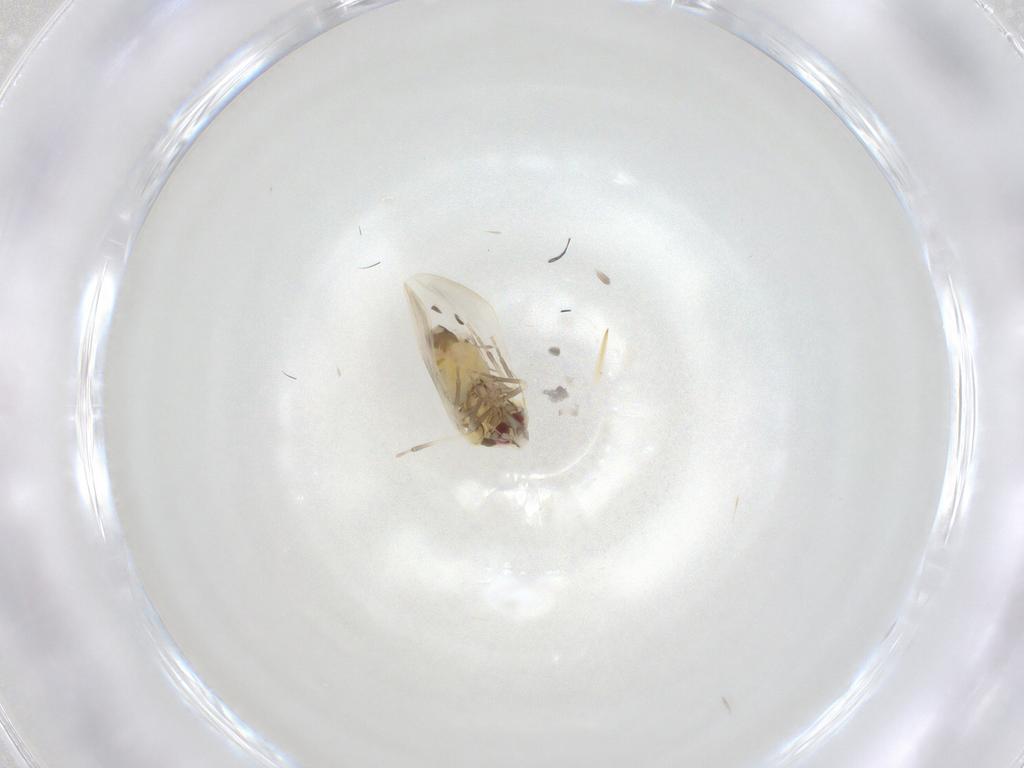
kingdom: Animalia
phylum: Arthropoda
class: Insecta
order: Hemiptera
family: Aleyrodidae
